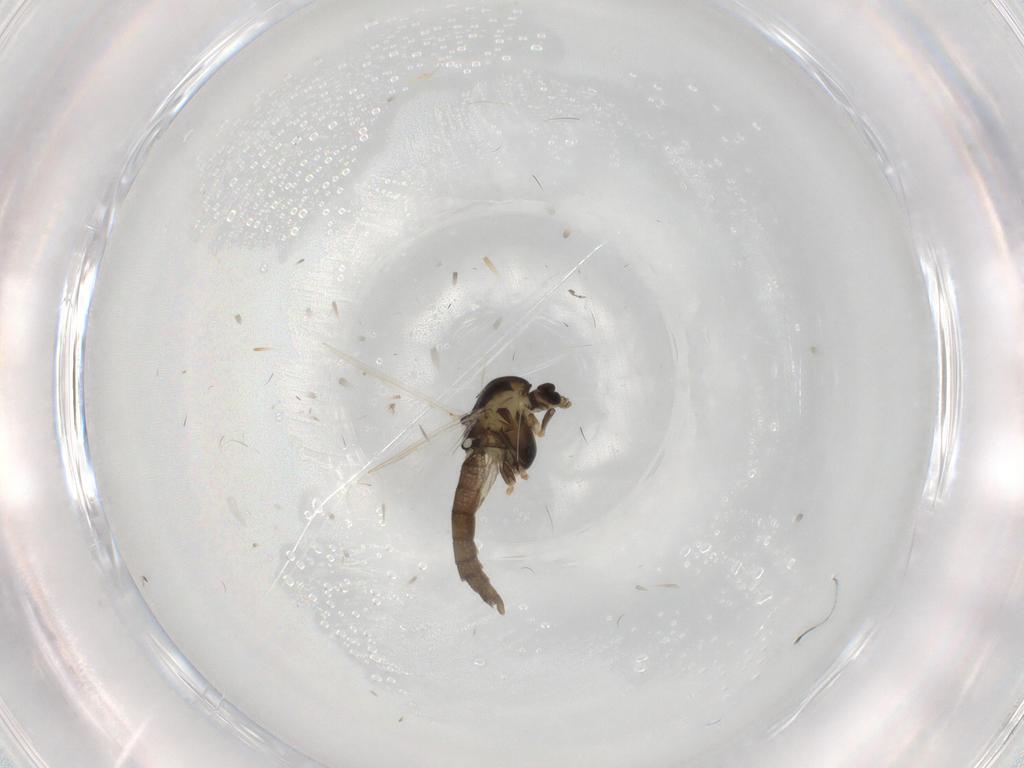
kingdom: Animalia
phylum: Arthropoda
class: Insecta
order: Diptera
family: Chironomidae
